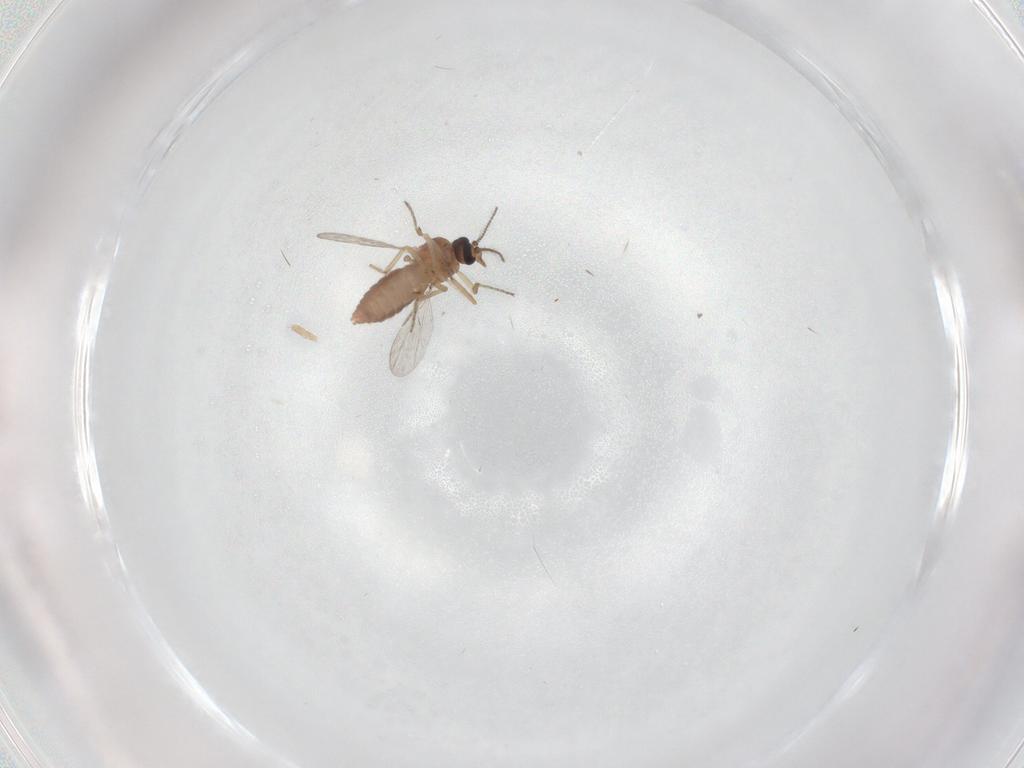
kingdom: Animalia
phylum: Arthropoda
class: Insecta
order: Diptera
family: Ceratopogonidae
